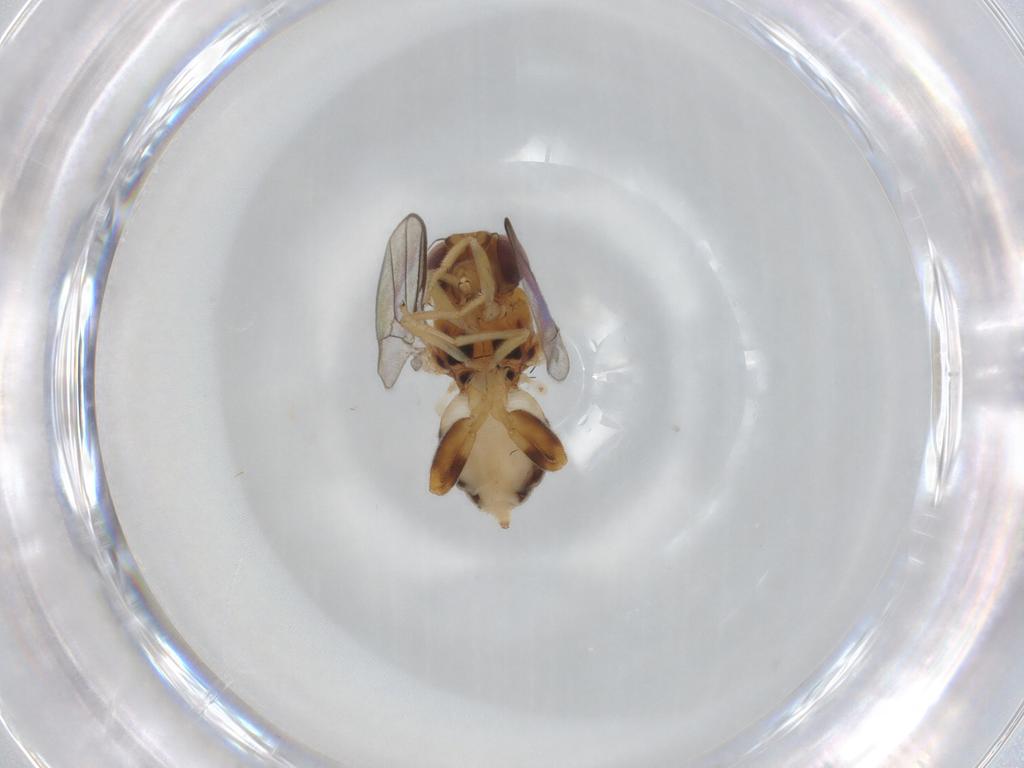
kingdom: Animalia
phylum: Arthropoda
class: Insecta
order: Diptera
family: Chloropidae
